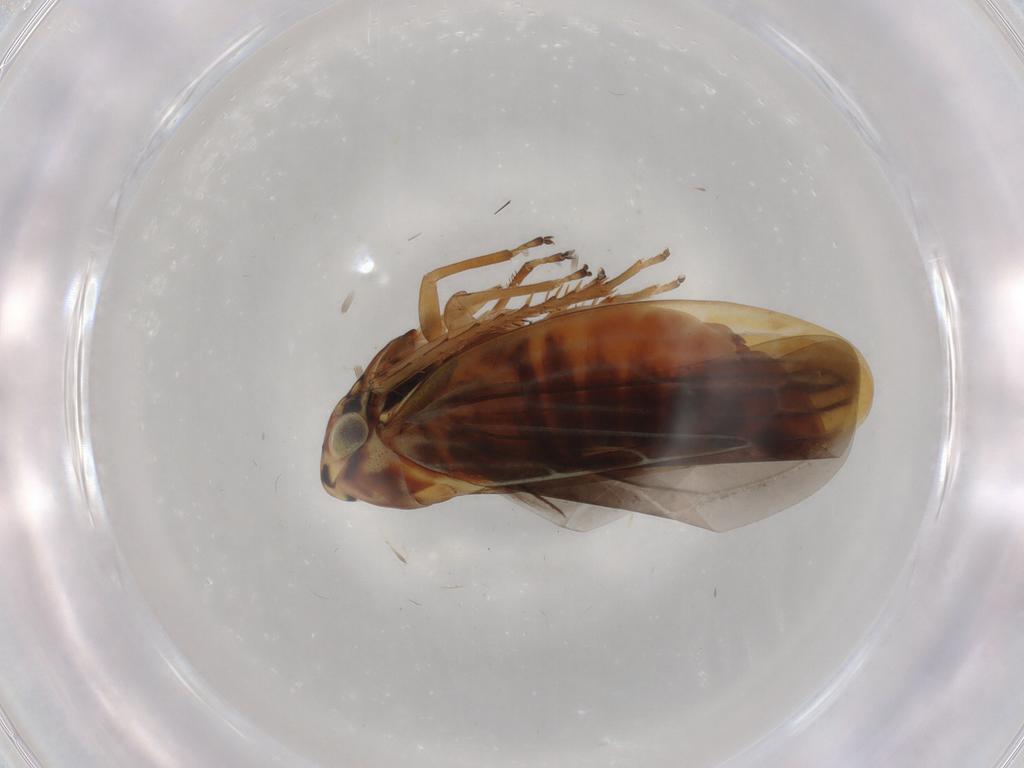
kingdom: Animalia
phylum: Arthropoda
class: Insecta
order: Hemiptera
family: Cicadellidae
